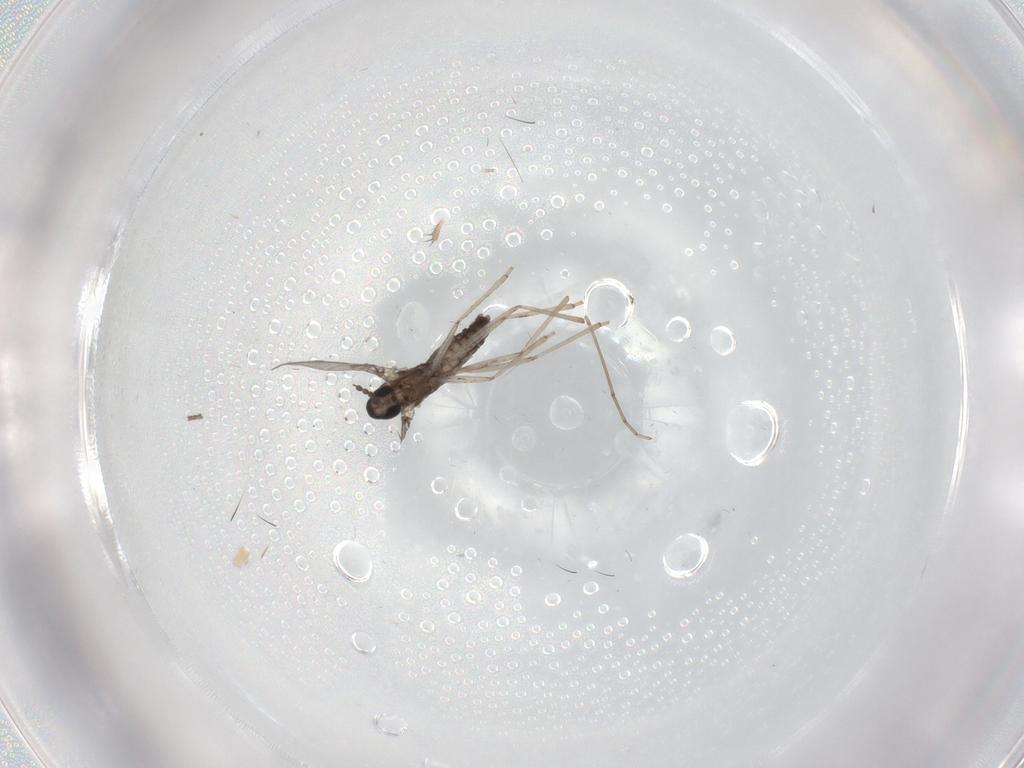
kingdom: Animalia
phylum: Arthropoda
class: Insecta
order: Diptera
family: Cecidomyiidae
